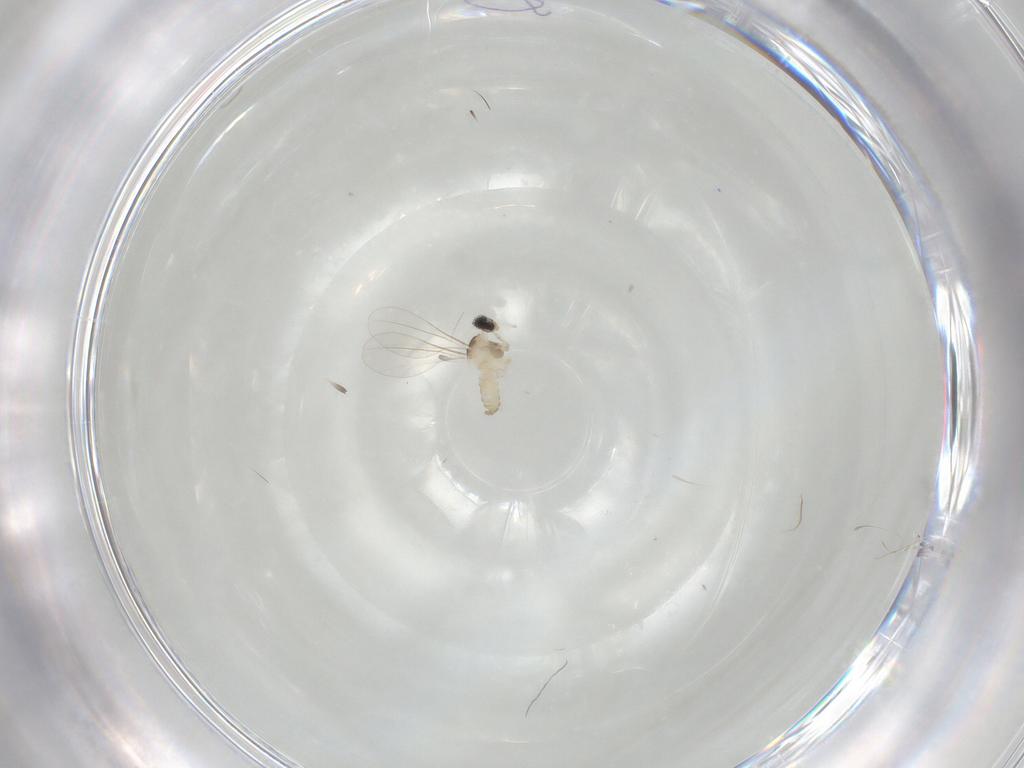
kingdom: Animalia
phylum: Arthropoda
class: Insecta
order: Diptera
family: Cecidomyiidae
